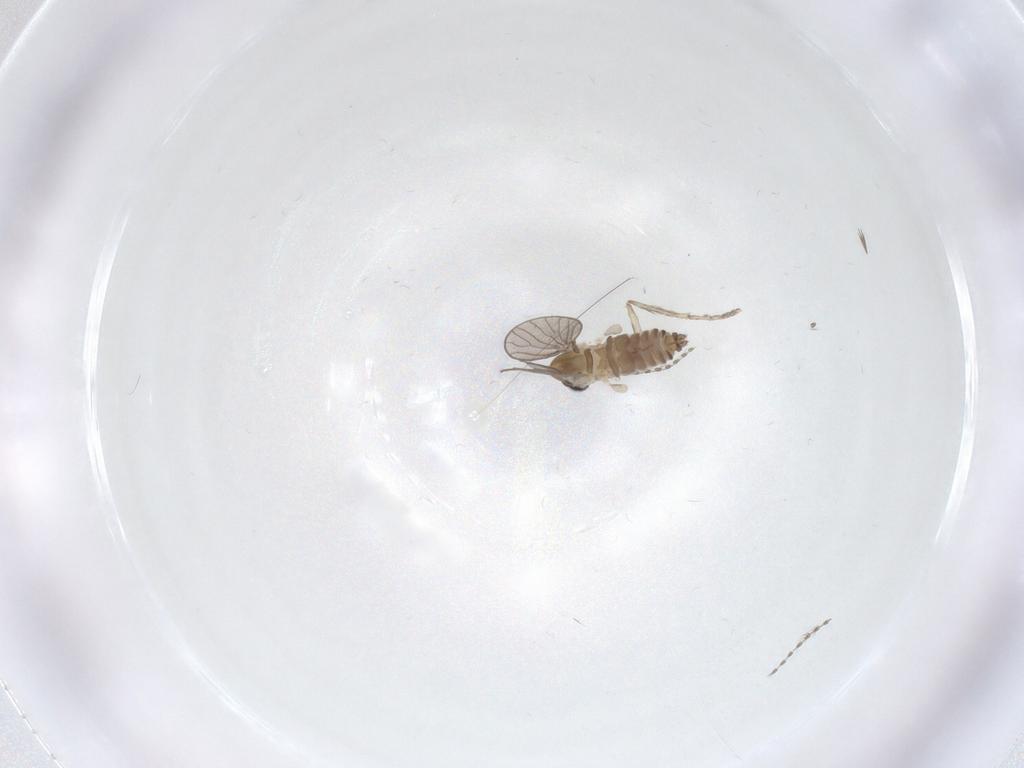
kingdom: Animalia
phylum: Arthropoda
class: Insecta
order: Diptera
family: Psychodidae
